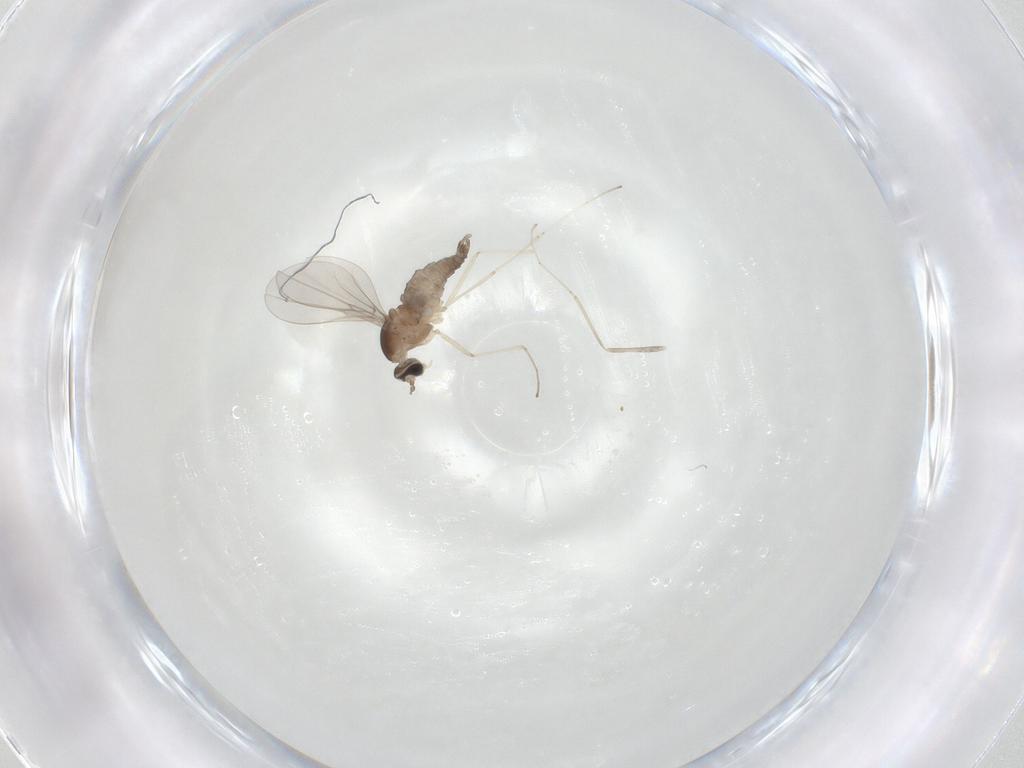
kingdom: Animalia
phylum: Arthropoda
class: Insecta
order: Diptera
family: Cecidomyiidae
